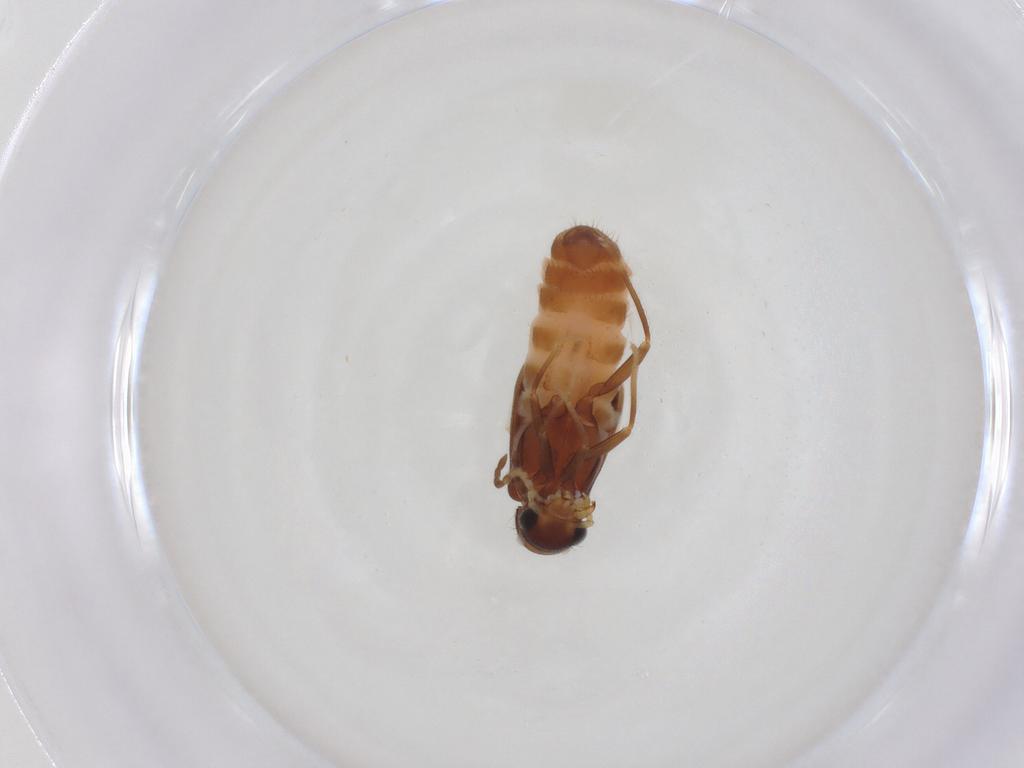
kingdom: Animalia
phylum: Arthropoda
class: Insecta
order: Coleoptera
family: Melyridae
